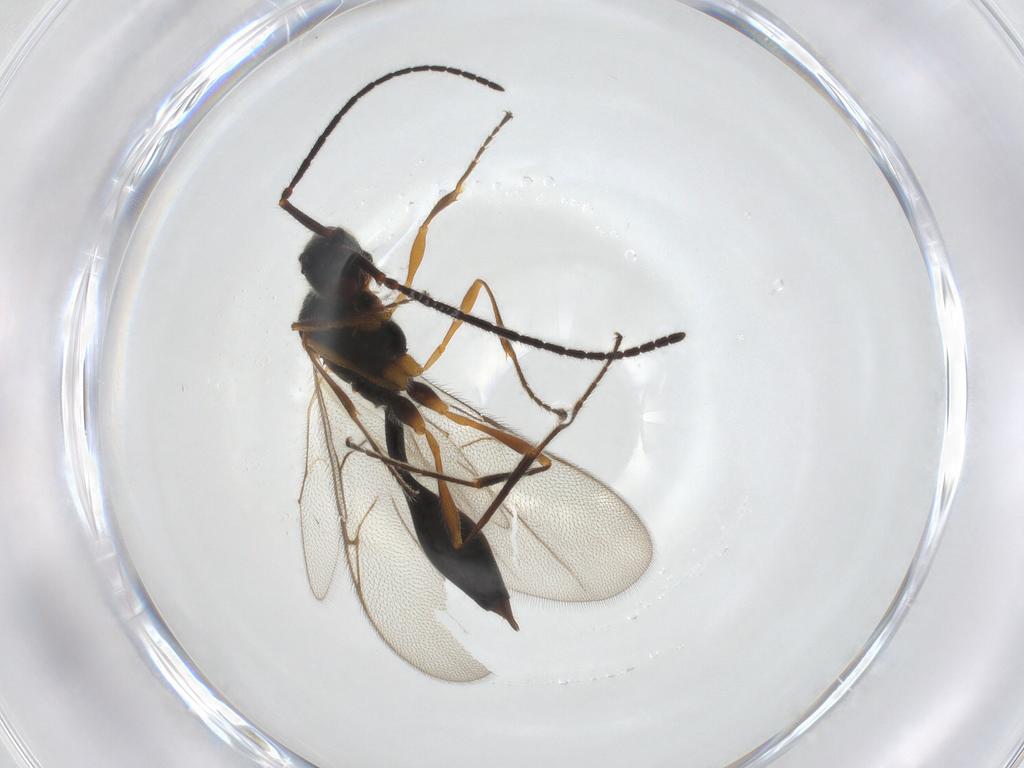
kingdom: Animalia
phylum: Arthropoda
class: Insecta
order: Hymenoptera
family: Diapriidae
